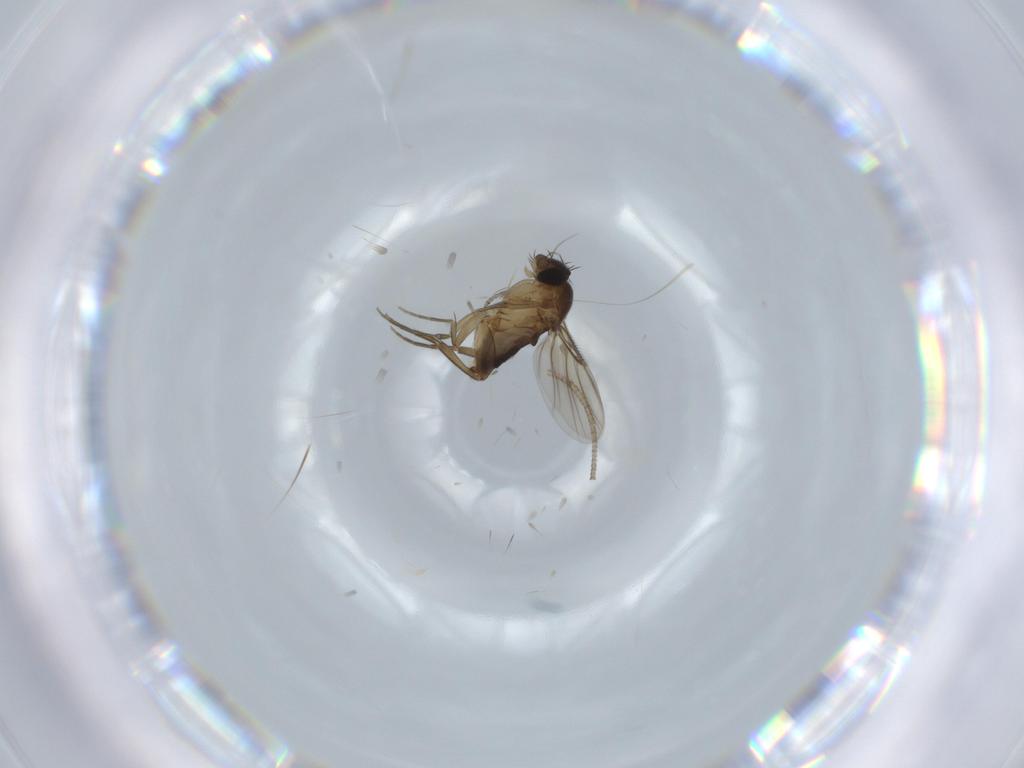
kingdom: Animalia
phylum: Arthropoda
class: Insecta
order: Diptera
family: Phoridae
